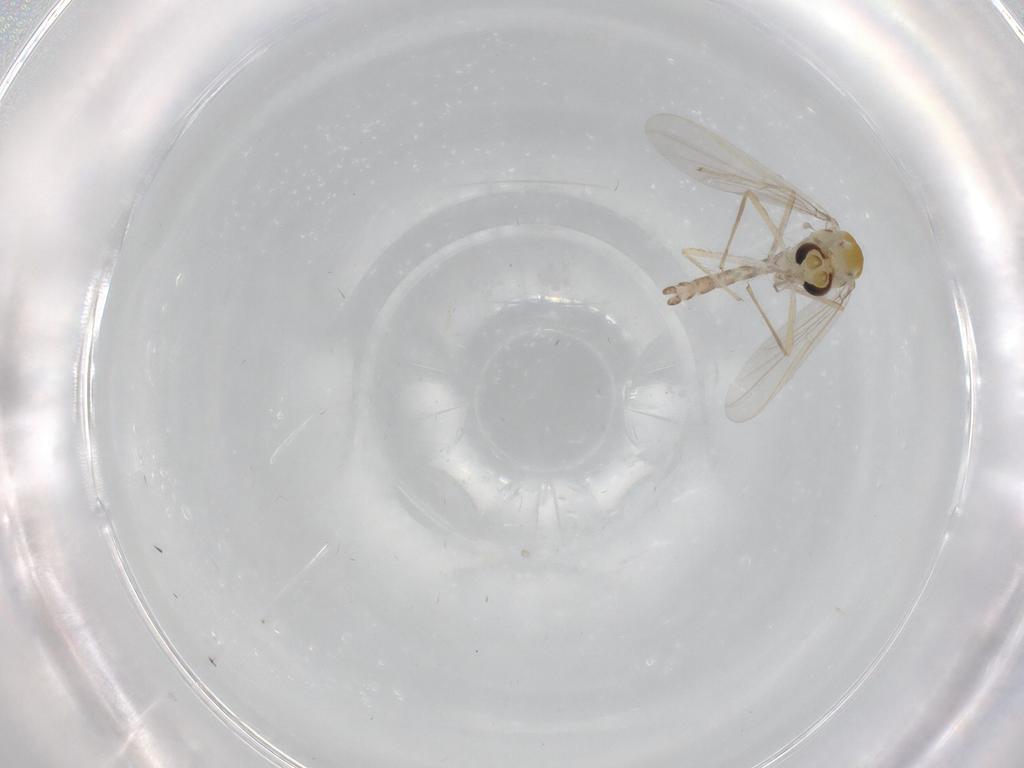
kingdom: Animalia
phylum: Arthropoda
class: Insecta
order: Diptera
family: Chironomidae
